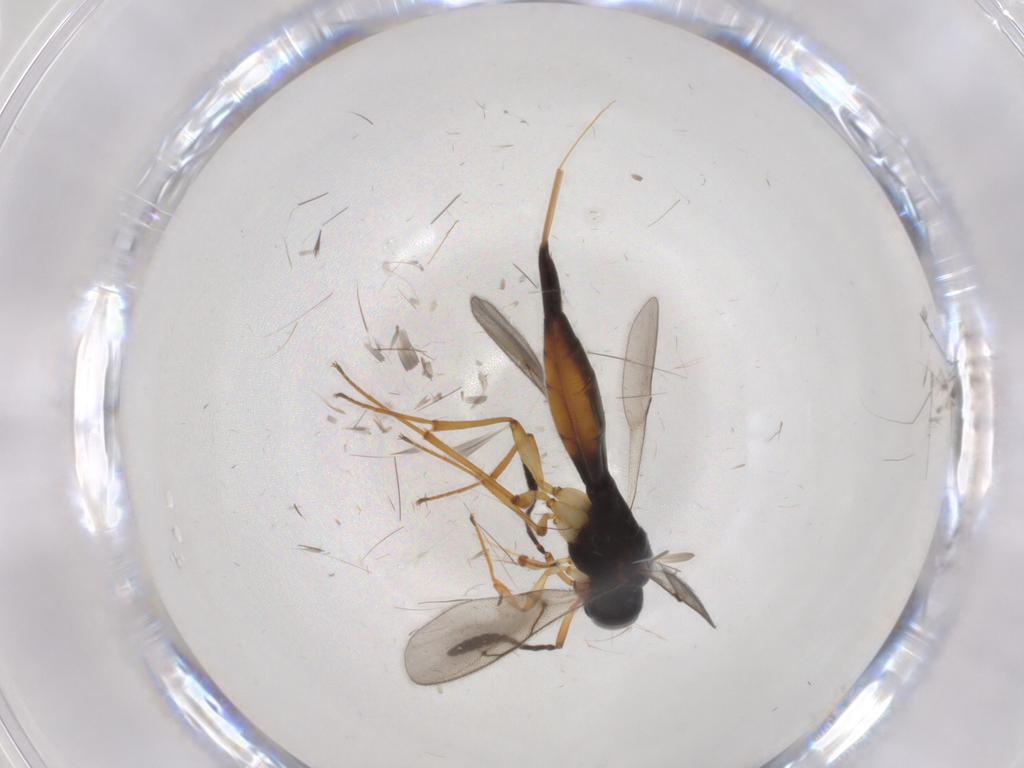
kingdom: Animalia
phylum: Arthropoda
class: Insecta
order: Hymenoptera
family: Scelionidae
